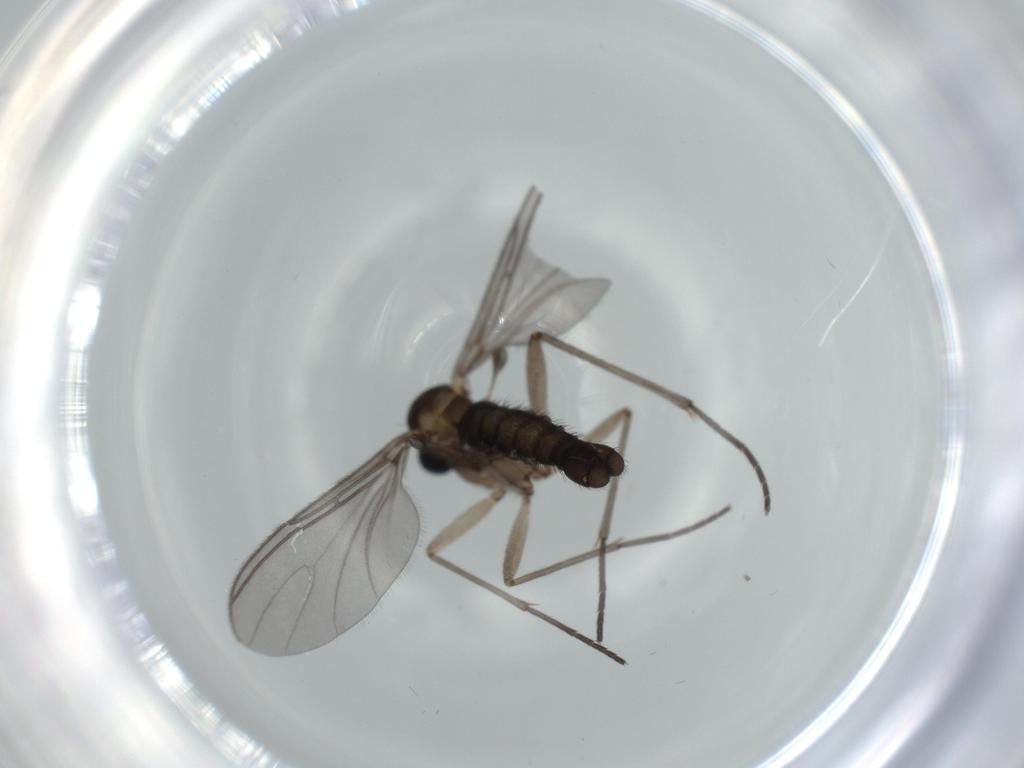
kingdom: Animalia
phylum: Arthropoda
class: Insecta
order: Diptera
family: Sciaridae
